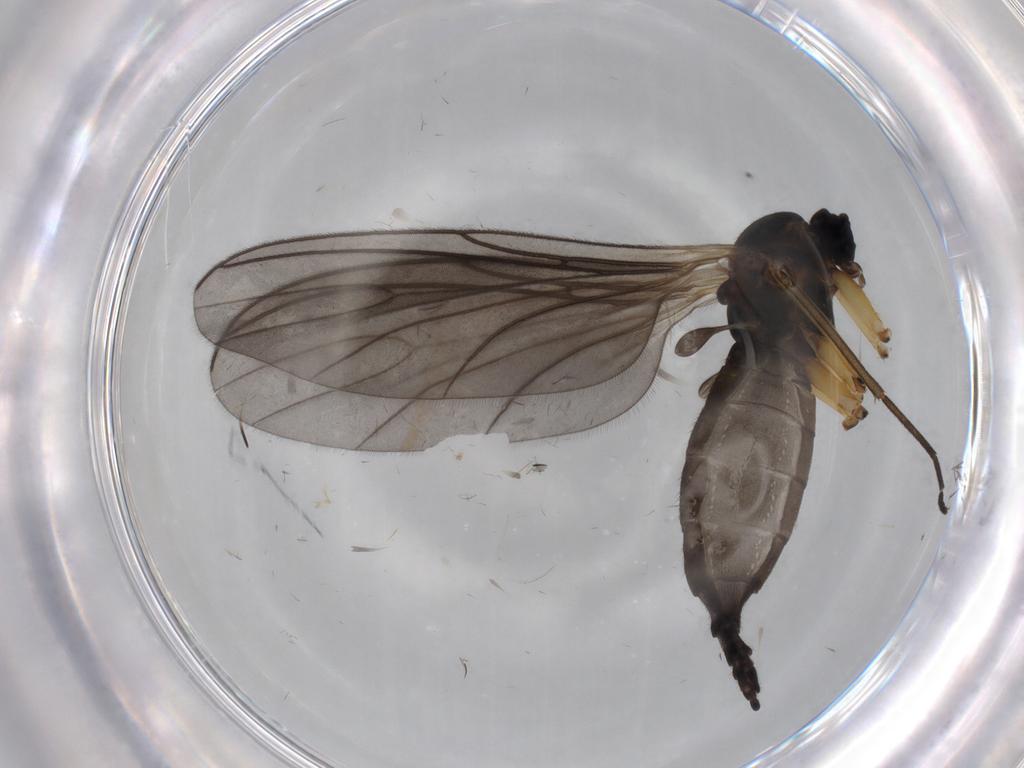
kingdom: Animalia
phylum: Arthropoda
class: Insecta
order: Diptera
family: Sciaridae
